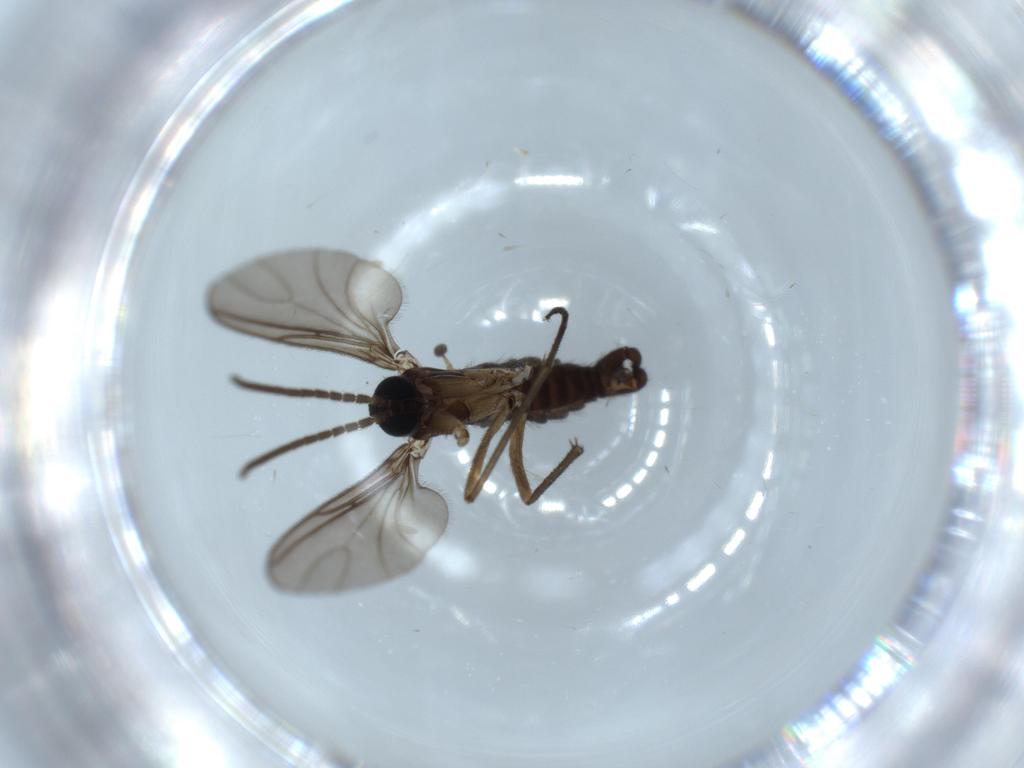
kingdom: Animalia
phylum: Arthropoda
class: Insecta
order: Diptera
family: Sciaridae
